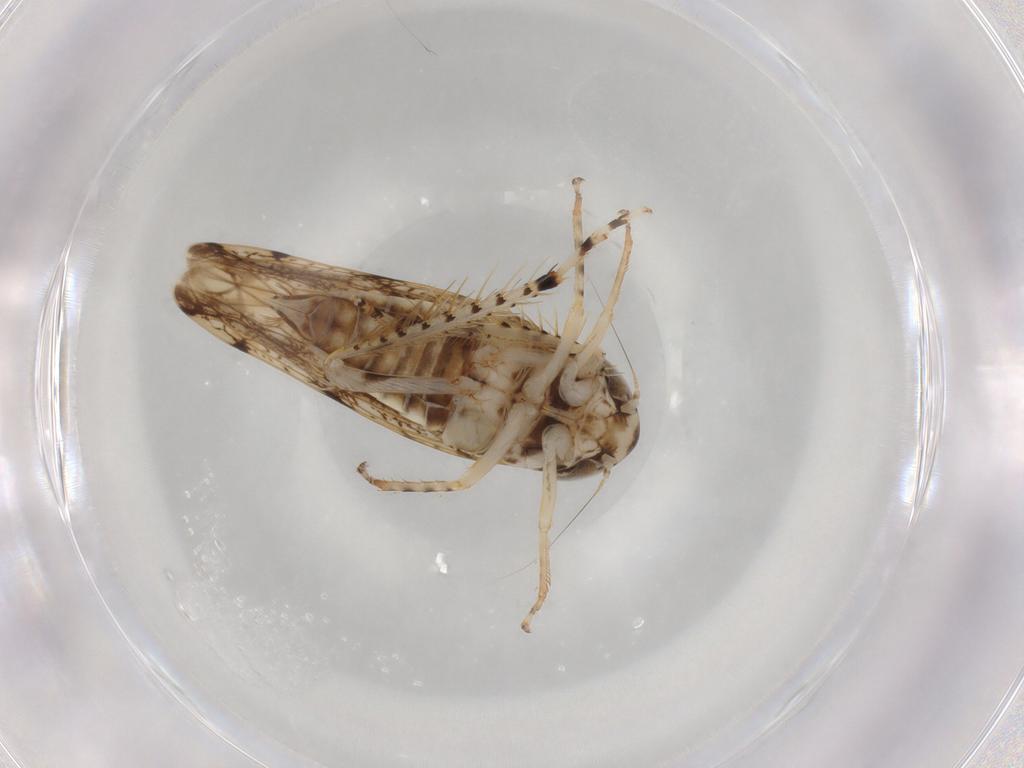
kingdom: Animalia
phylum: Arthropoda
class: Insecta
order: Hemiptera
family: Cicadellidae
